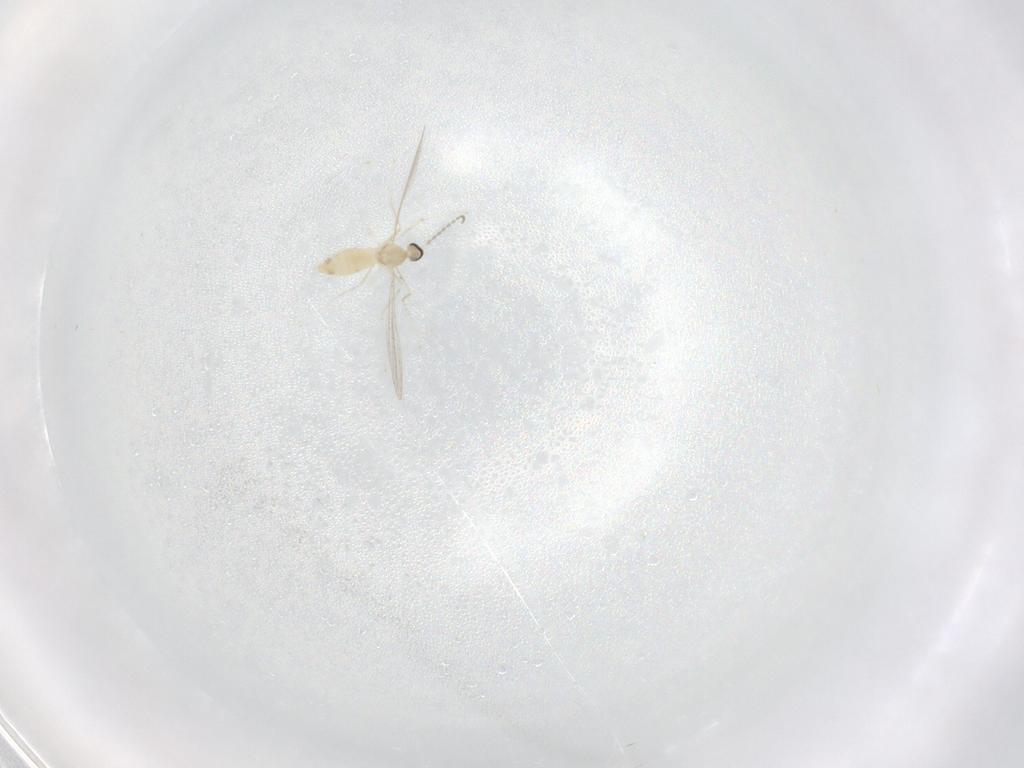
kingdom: Animalia
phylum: Arthropoda
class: Insecta
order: Diptera
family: Cecidomyiidae
